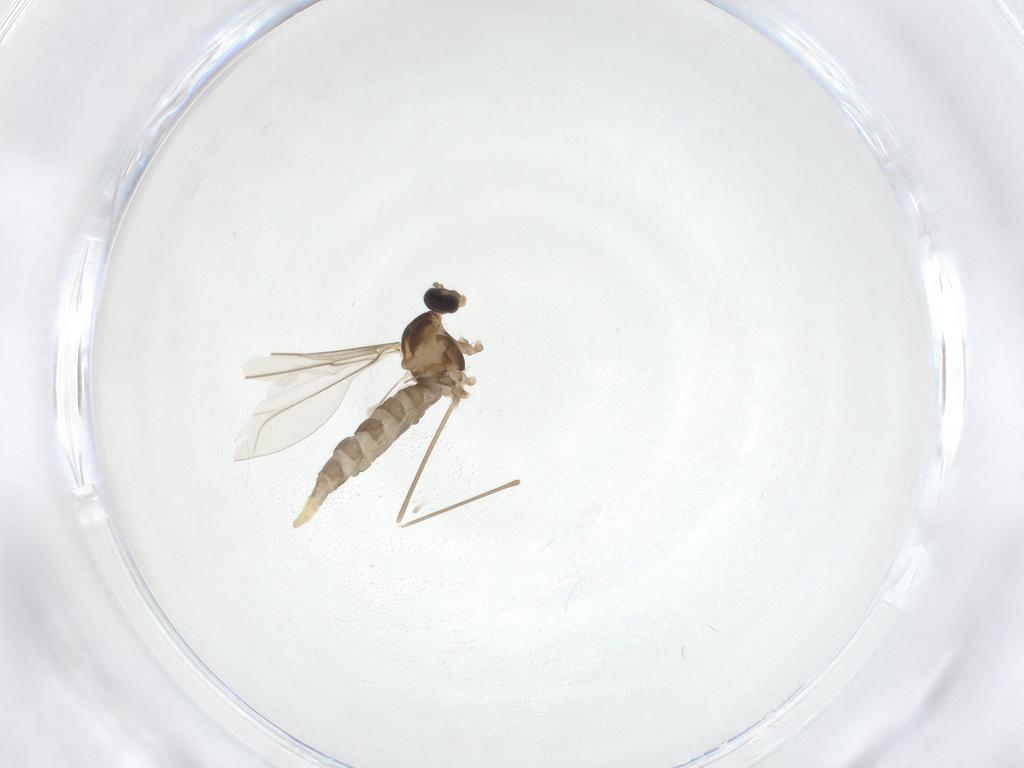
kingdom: Animalia
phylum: Arthropoda
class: Insecta
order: Diptera
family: Cecidomyiidae
